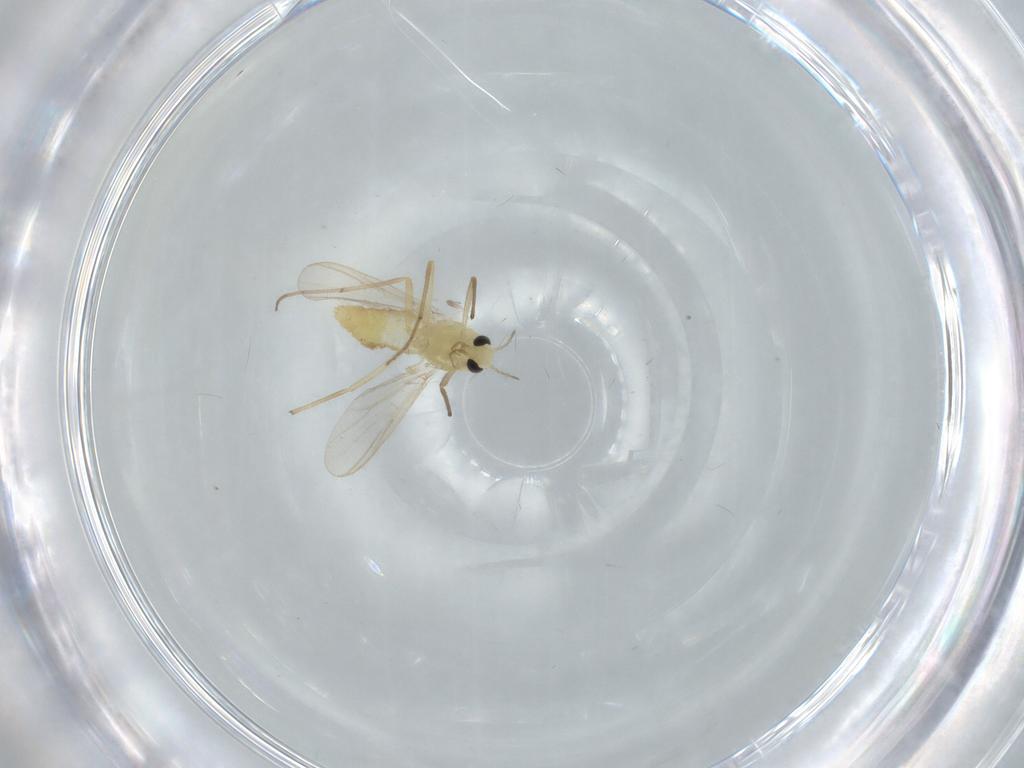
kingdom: Animalia
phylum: Arthropoda
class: Insecta
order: Diptera
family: Chironomidae
